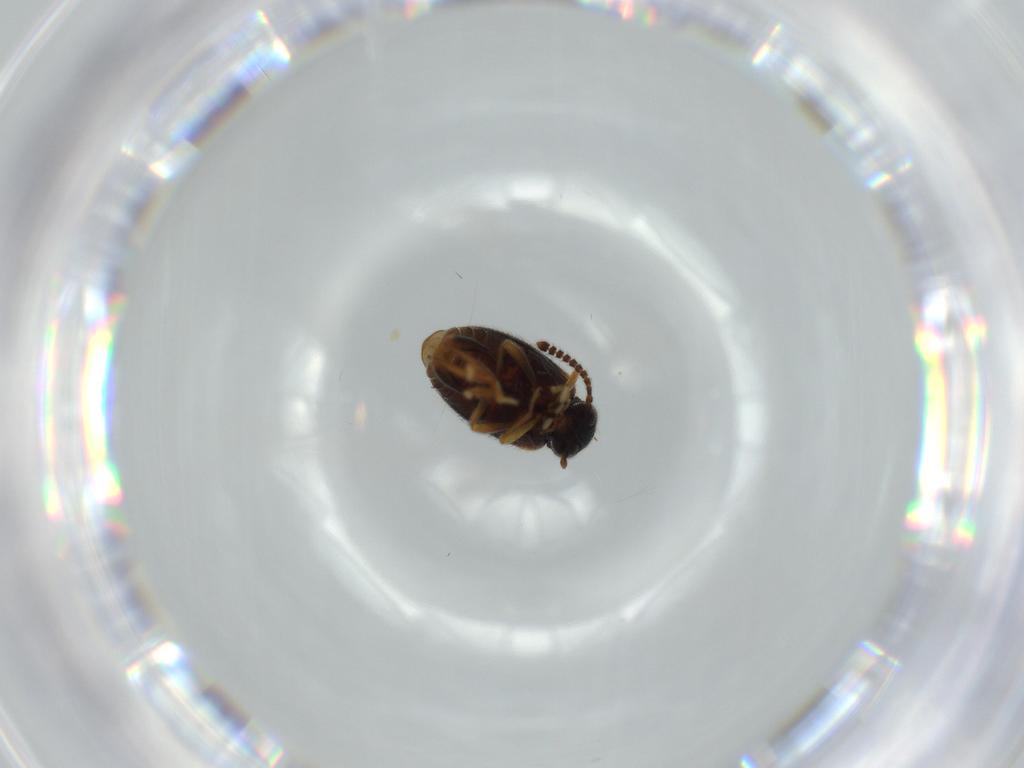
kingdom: Animalia
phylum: Arthropoda
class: Insecta
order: Coleoptera
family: Aderidae
